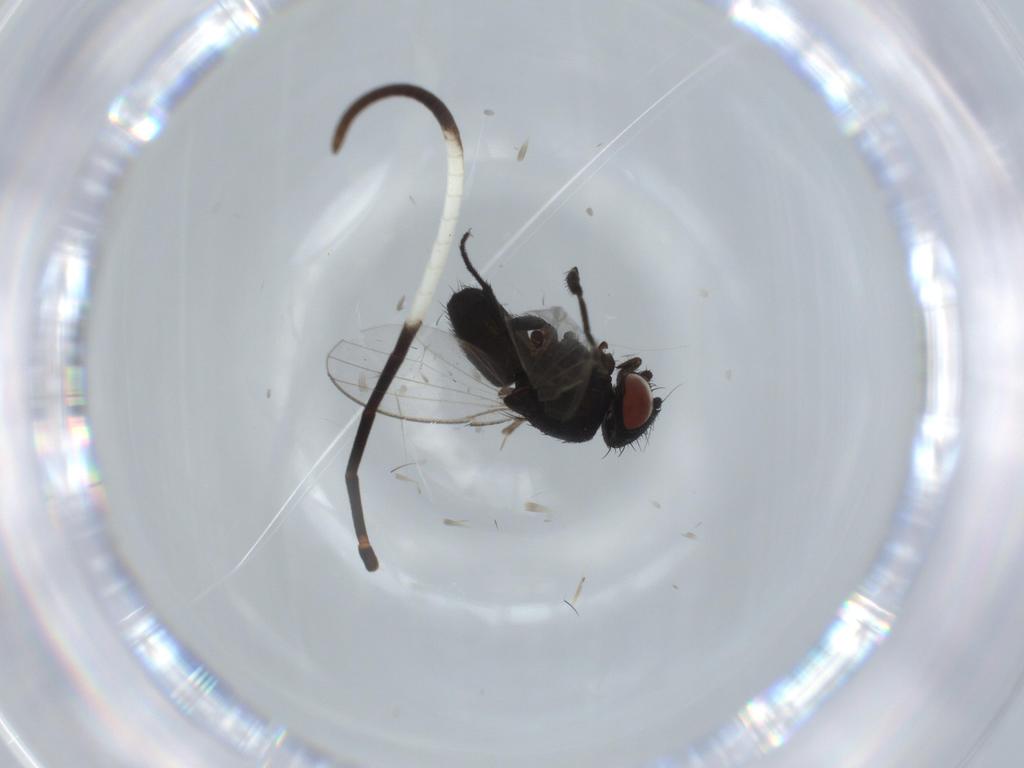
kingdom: Animalia
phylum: Arthropoda
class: Insecta
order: Diptera
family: Milichiidae
